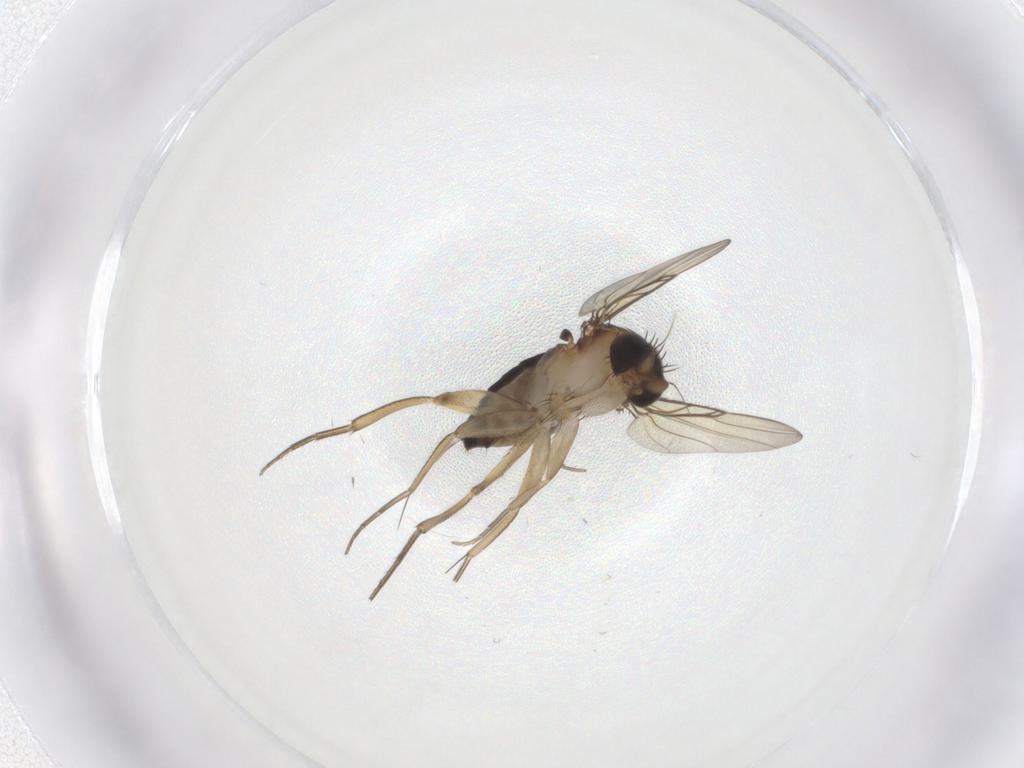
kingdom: Animalia
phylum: Arthropoda
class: Insecta
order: Diptera
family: Phoridae
